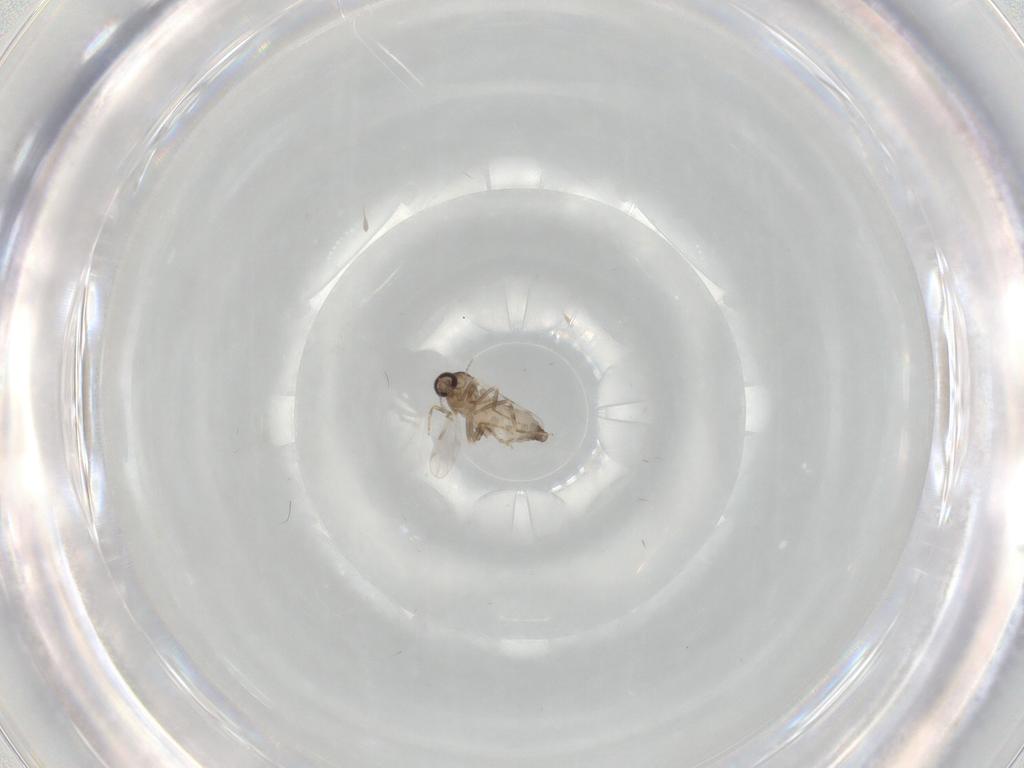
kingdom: Animalia
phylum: Arthropoda
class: Insecta
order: Diptera
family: Ceratopogonidae
